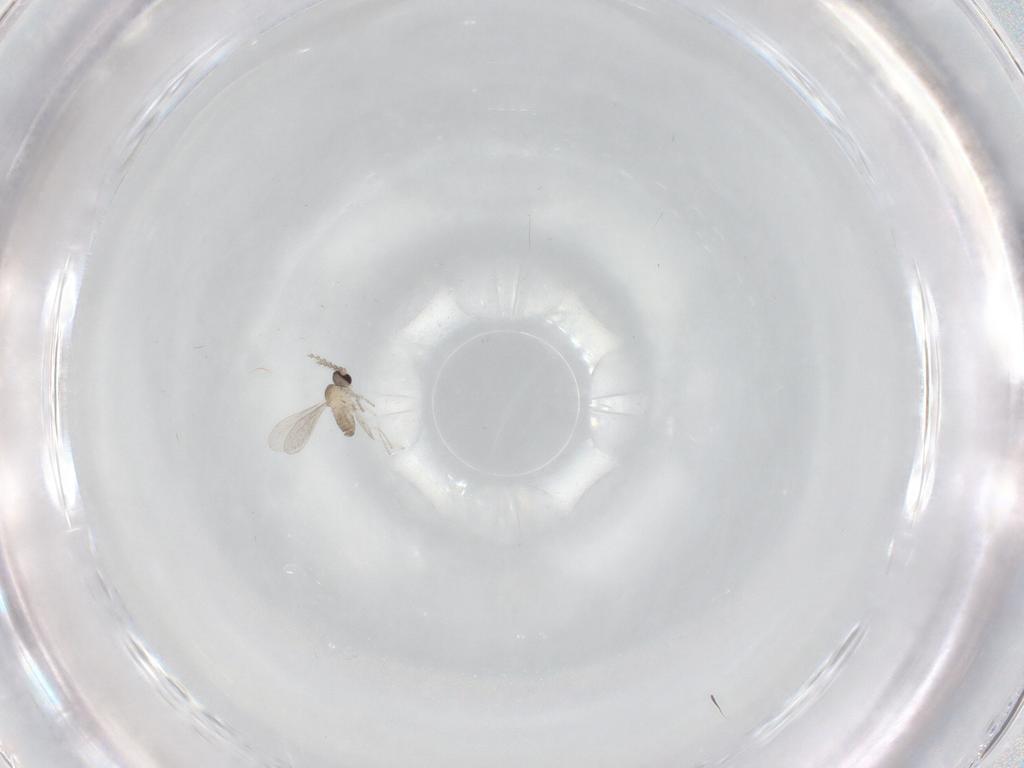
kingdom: Animalia
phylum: Arthropoda
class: Insecta
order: Diptera
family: Cecidomyiidae
